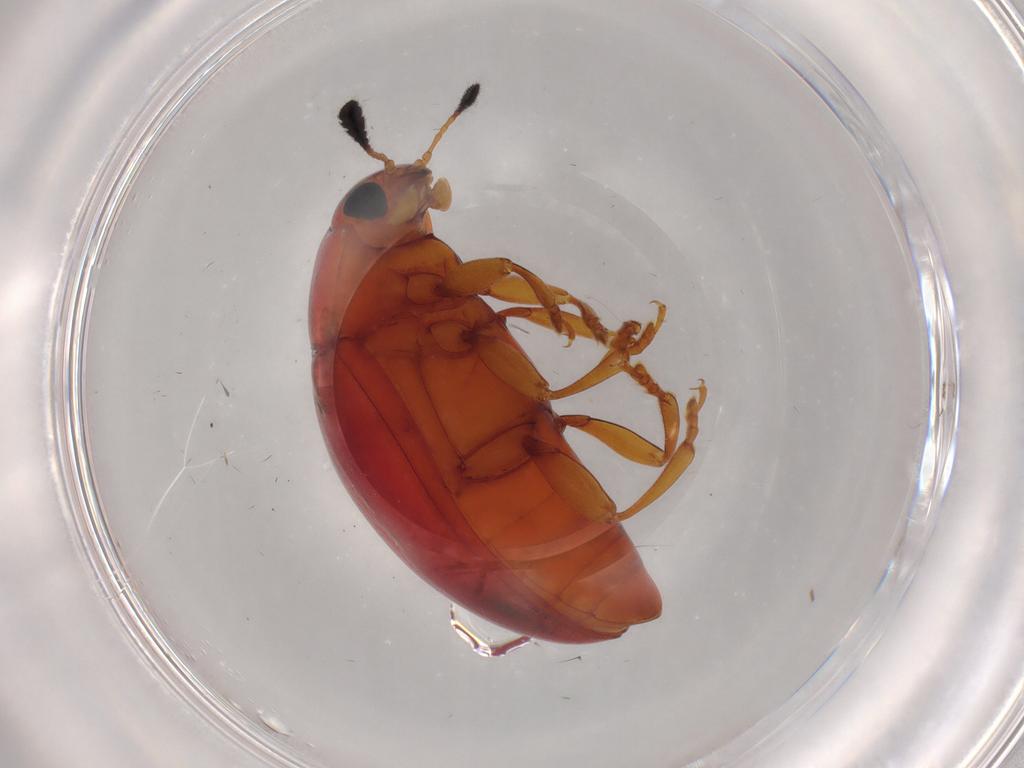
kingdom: Animalia
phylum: Arthropoda
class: Insecta
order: Coleoptera
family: Erotylidae
